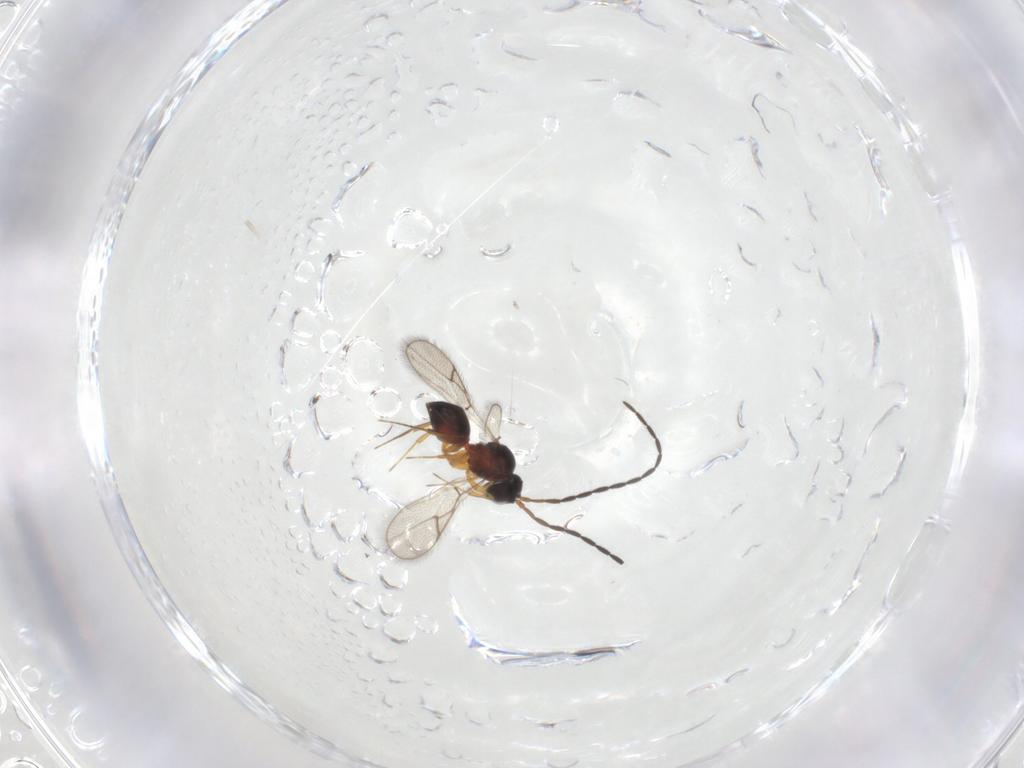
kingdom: Animalia
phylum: Arthropoda
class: Insecta
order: Hymenoptera
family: Figitidae
